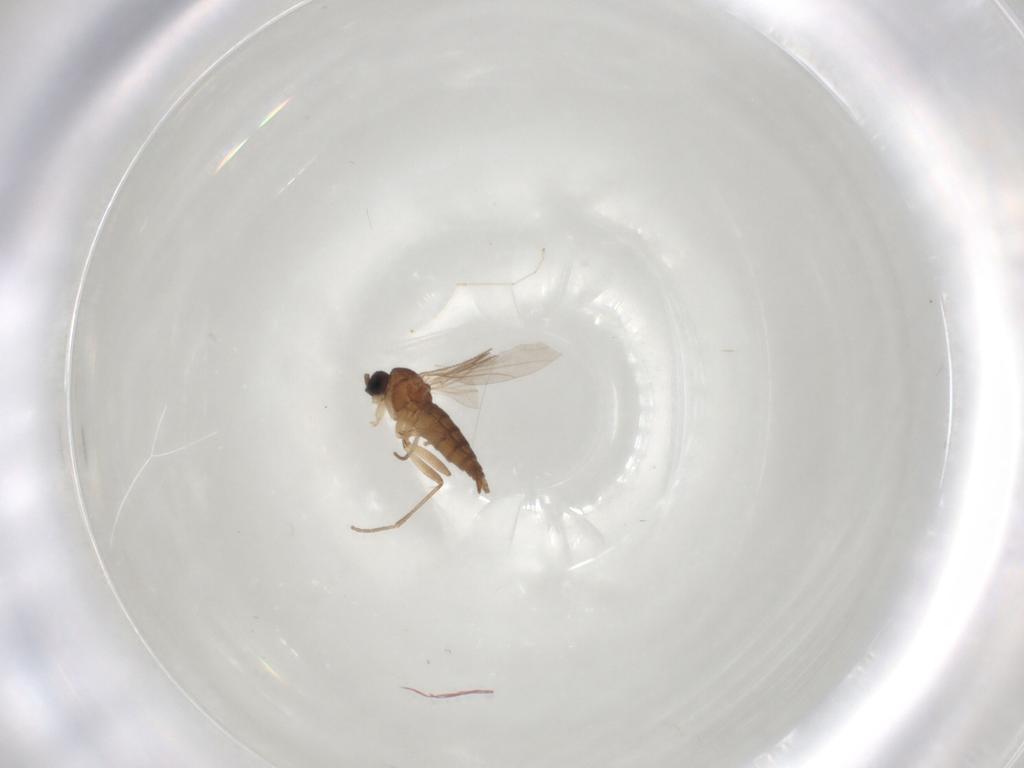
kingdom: Animalia
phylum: Arthropoda
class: Insecta
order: Diptera
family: Sciaridae
